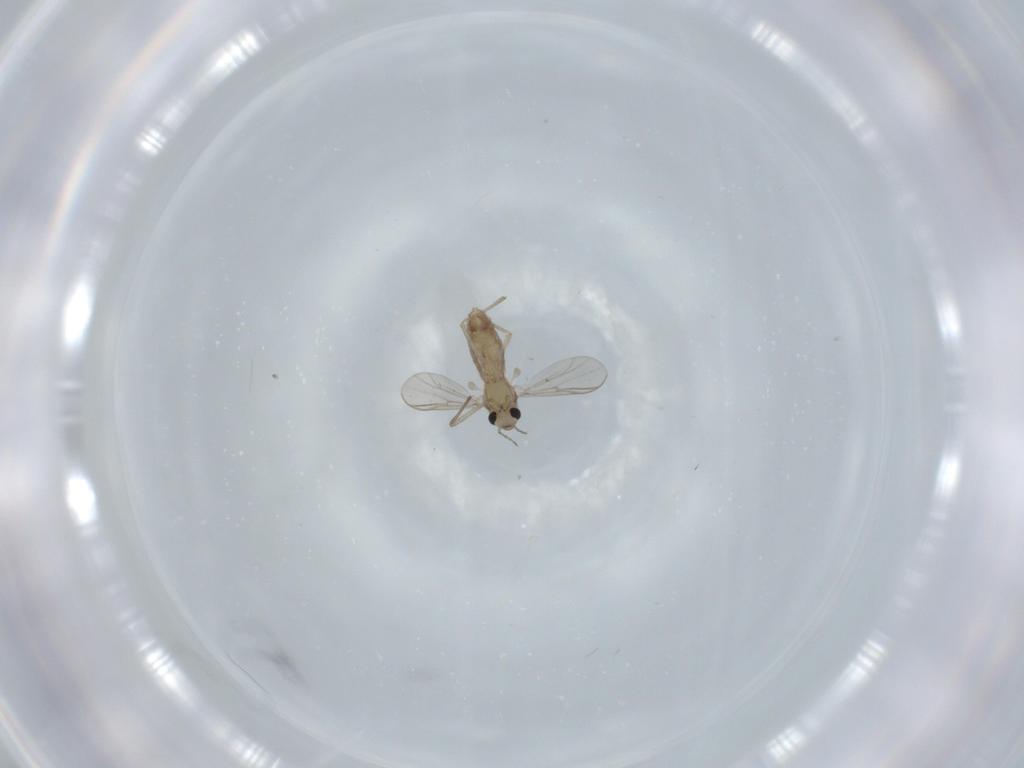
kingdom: Animalia
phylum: Arthropoda
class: Insecta
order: Diptera
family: Chironomidae
